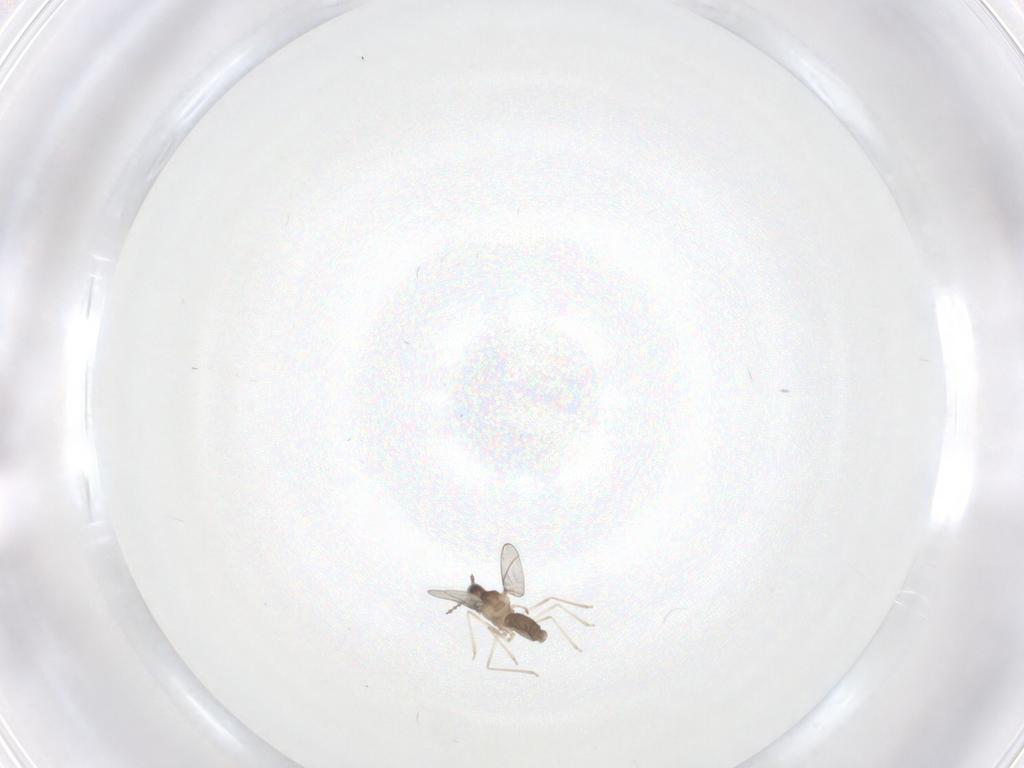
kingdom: Animalia
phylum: Arthropoda
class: Insecta
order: Diptera
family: Cecidomyiidae
